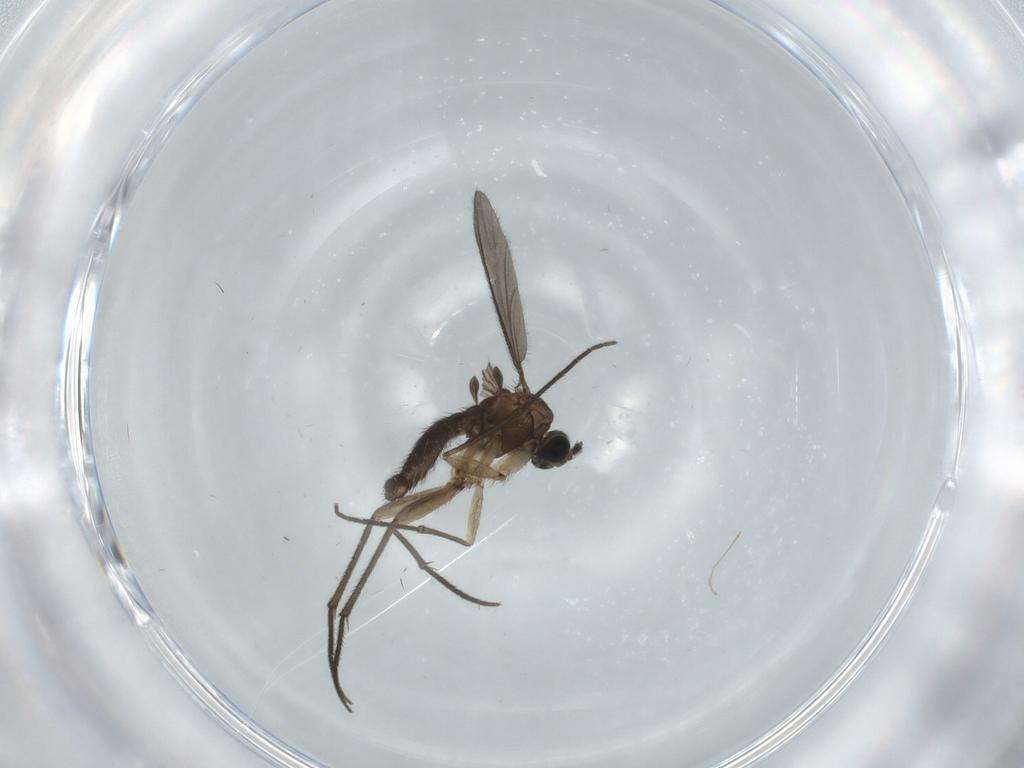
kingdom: Animalia
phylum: Arthropoda
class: Insecta
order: Diptera
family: Sciaridae
